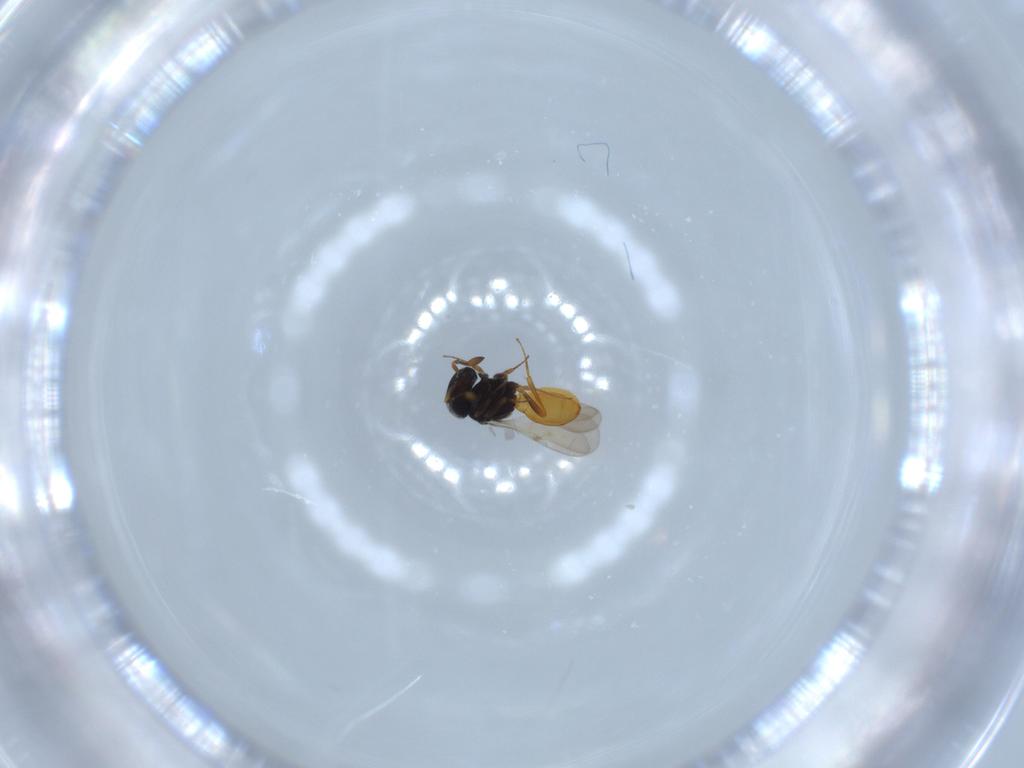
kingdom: Animalia
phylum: Arthropoda
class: Insecta
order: Hymenoptera
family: Scelionidae
